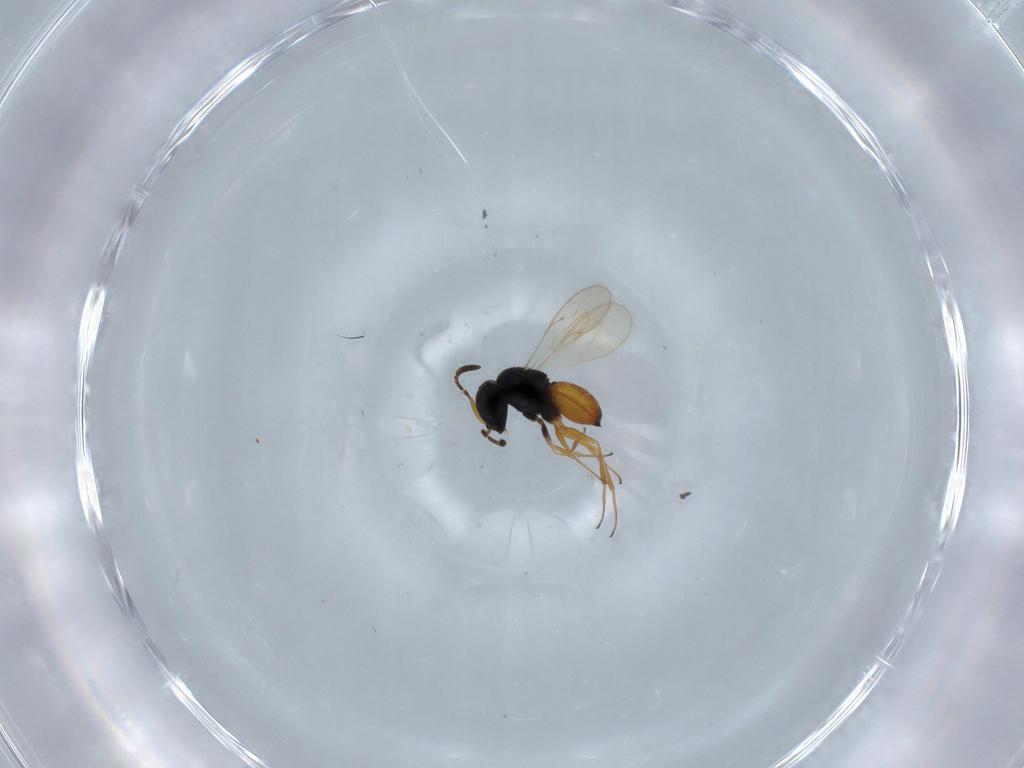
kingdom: Animalia
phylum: Arthropoda
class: Insecta
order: Hymenoptera
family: Scelionidae
